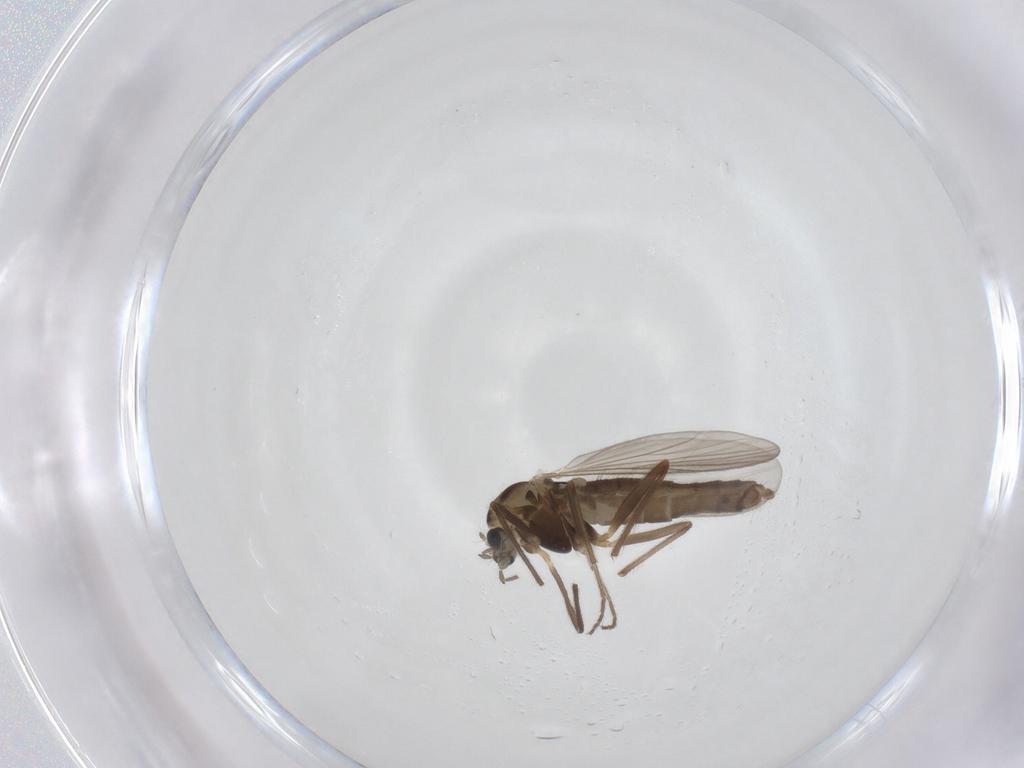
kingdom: Animalia
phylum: Arthropoda
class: Insecta
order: Diptera
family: Chironomidae
